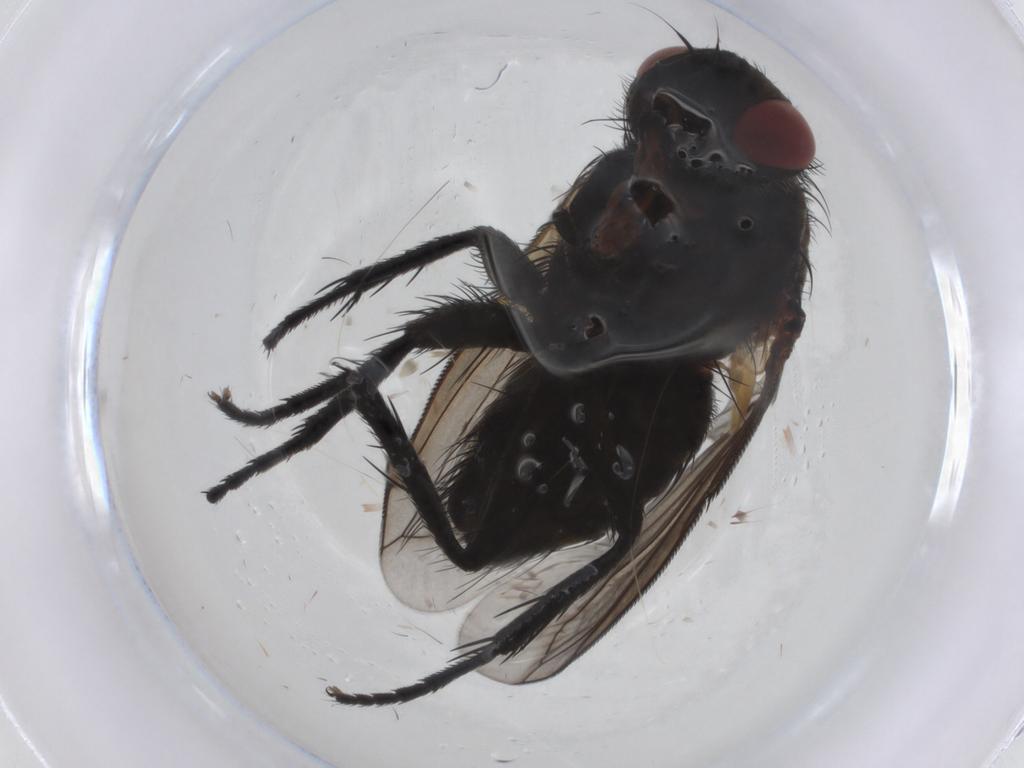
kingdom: Animalia
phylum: Arthropoda
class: Insecta
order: Diptera
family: Tachinidae
